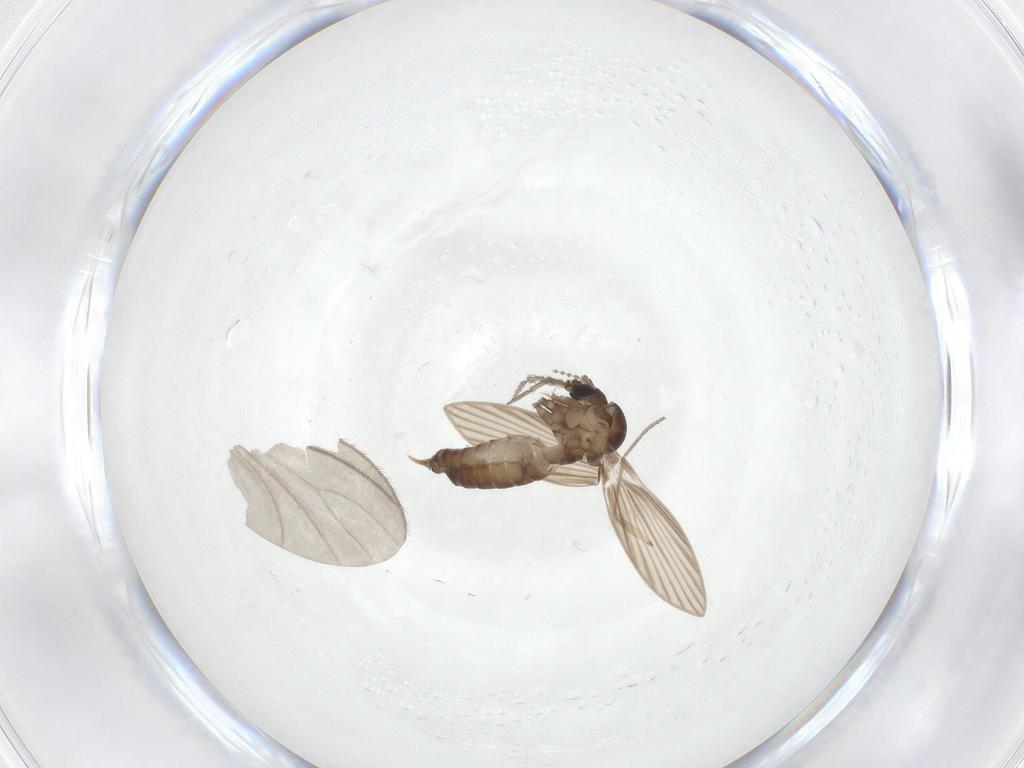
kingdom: Animalia
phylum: Arthropoda
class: Insecta
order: Diptera
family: Psychodidae
